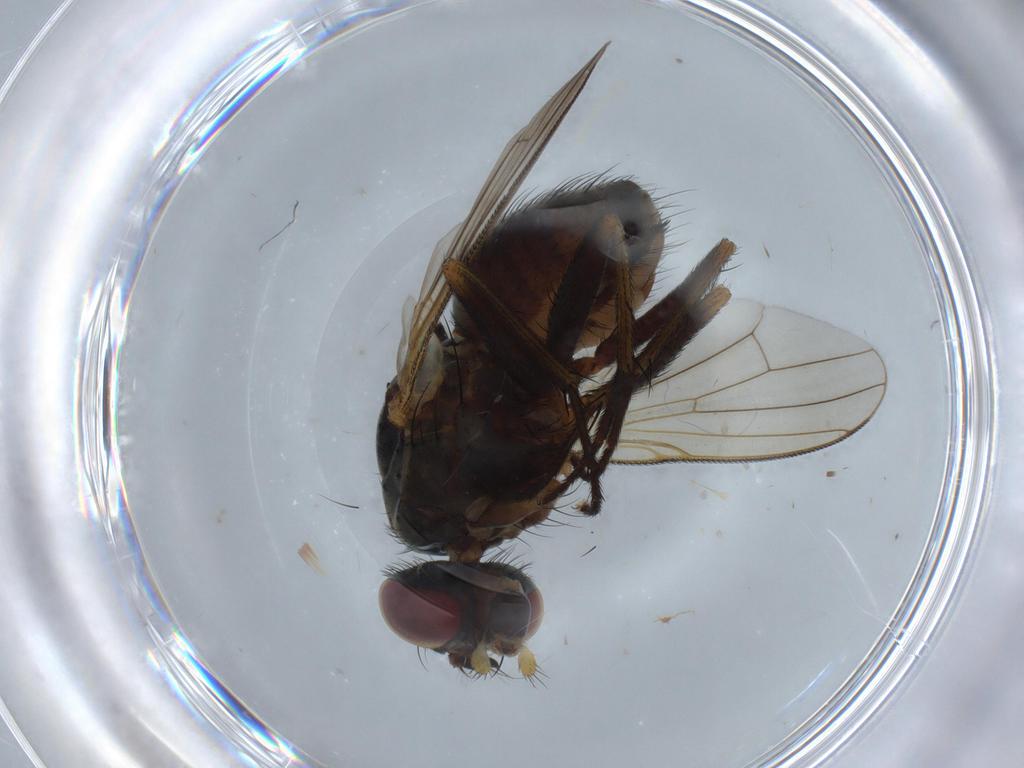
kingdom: Animalia
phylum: Arthropoda
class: Insecta
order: Diptera
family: Muscidae
